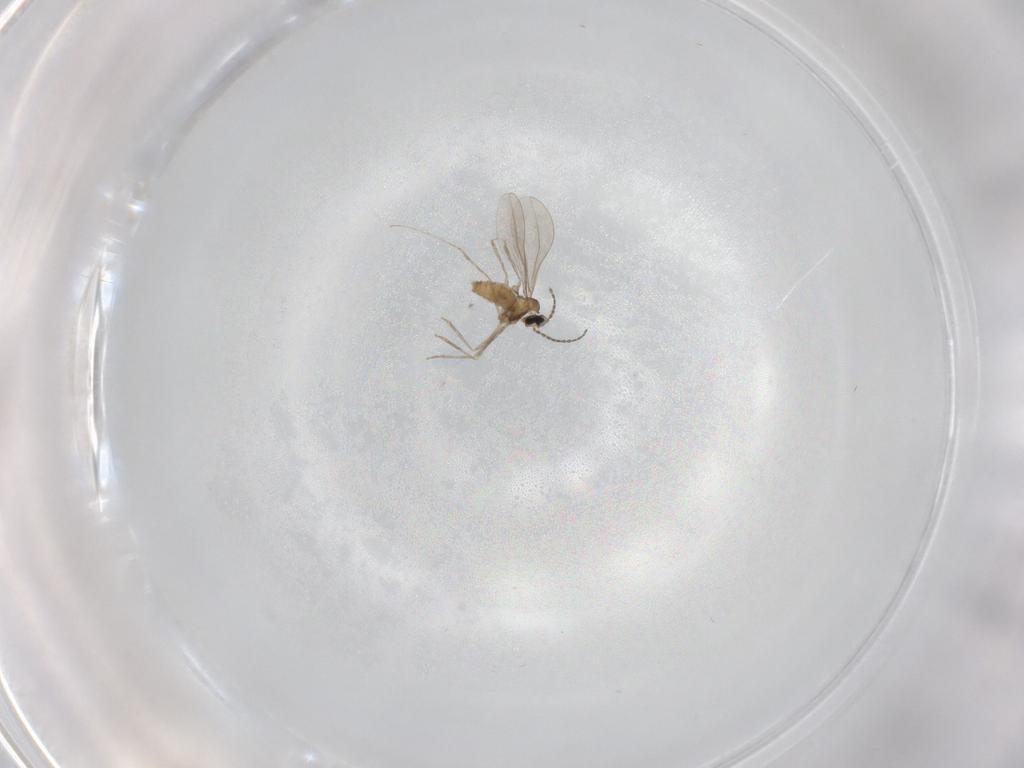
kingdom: Animalia
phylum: Arthropoda
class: Insecta
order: Diptera
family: Cecidomyiidae
